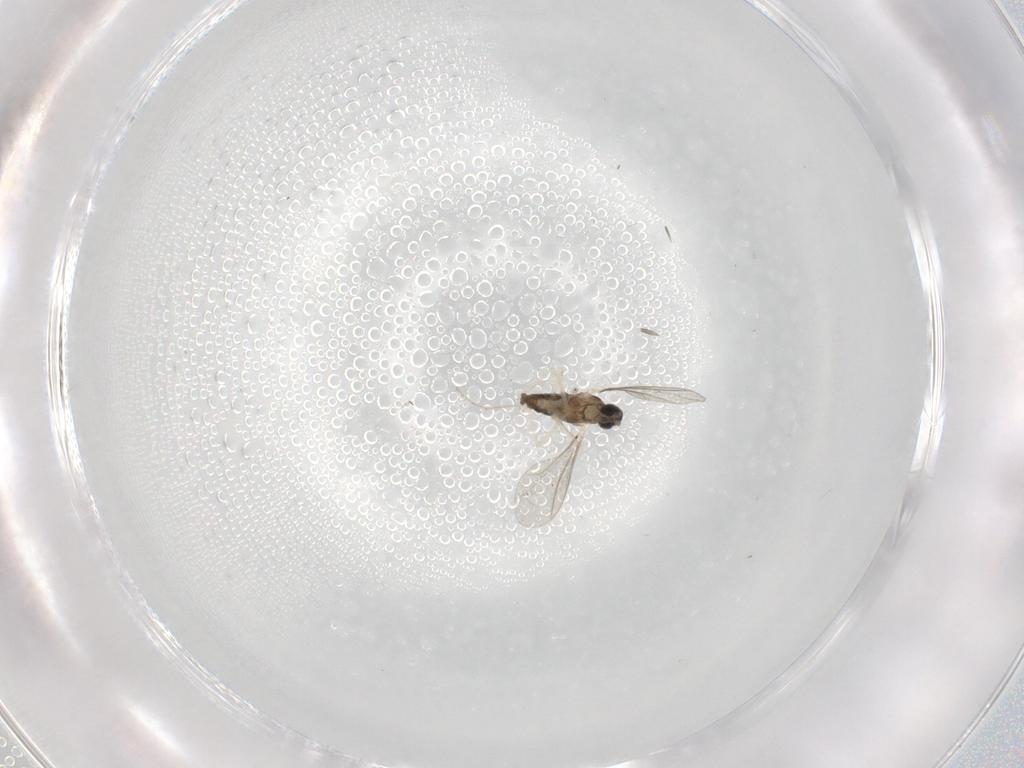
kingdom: Animalia
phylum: Arthropoda
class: Insecta
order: Diptera
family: Cecidomyiidae
